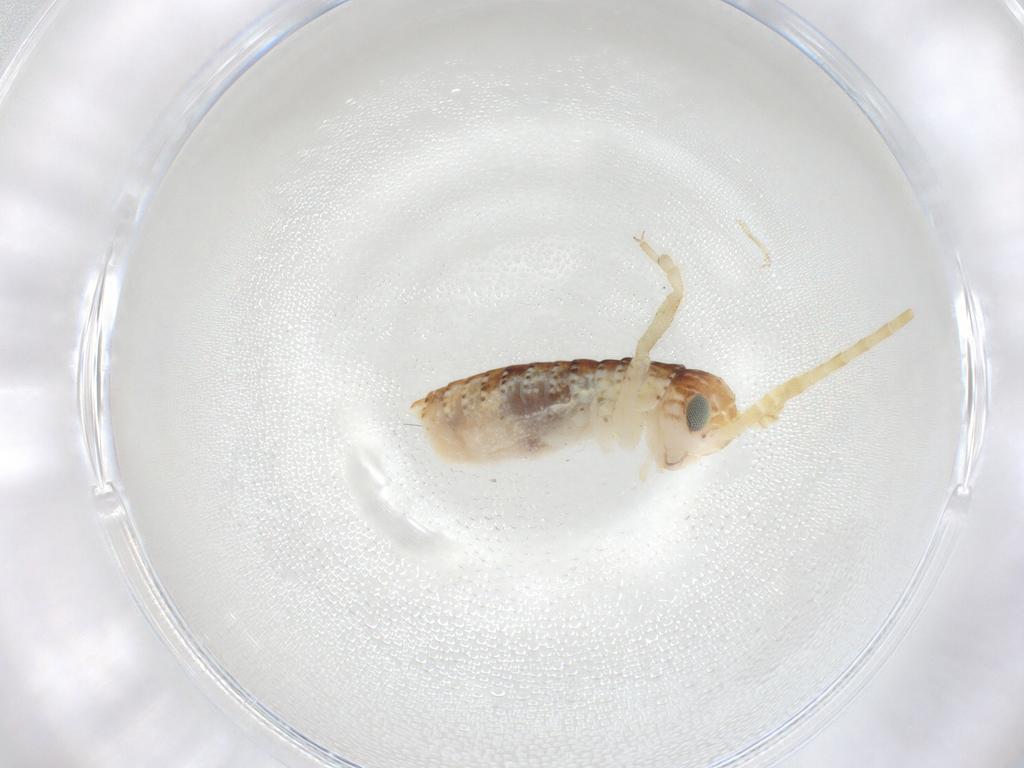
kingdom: Animalia
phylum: Arthropoda
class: Insecta
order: Orthoptera
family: Gryllidae
